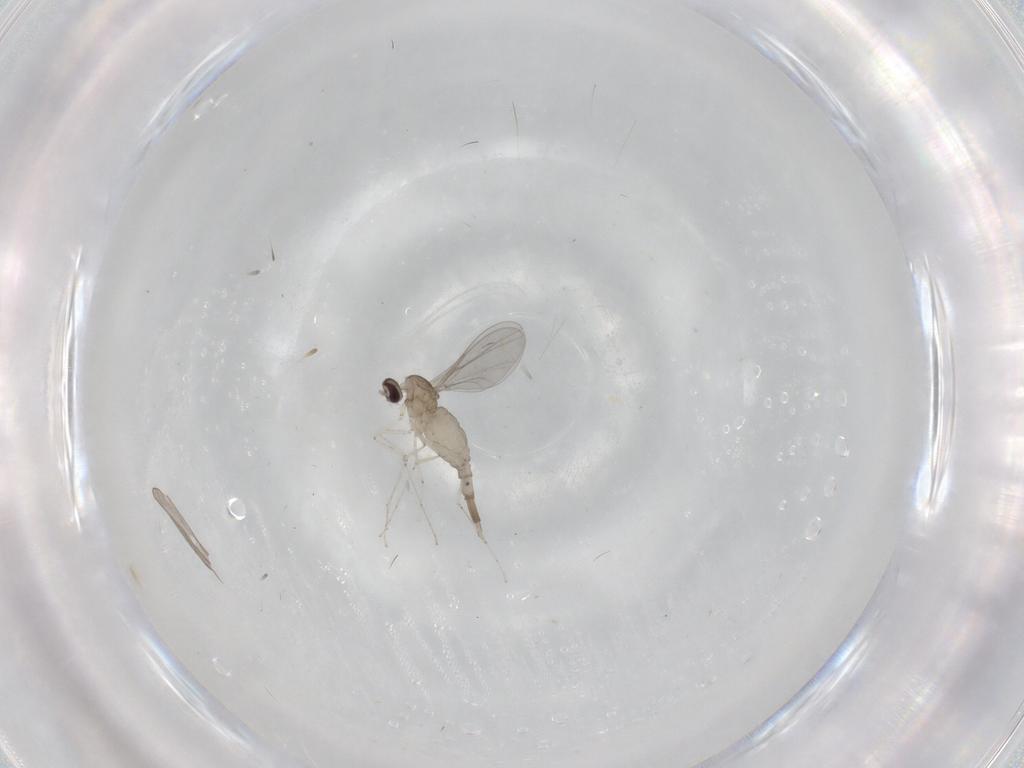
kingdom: Animalia
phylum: Arthropoda
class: Insecta
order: Diptera
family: Cecidomyiidae
